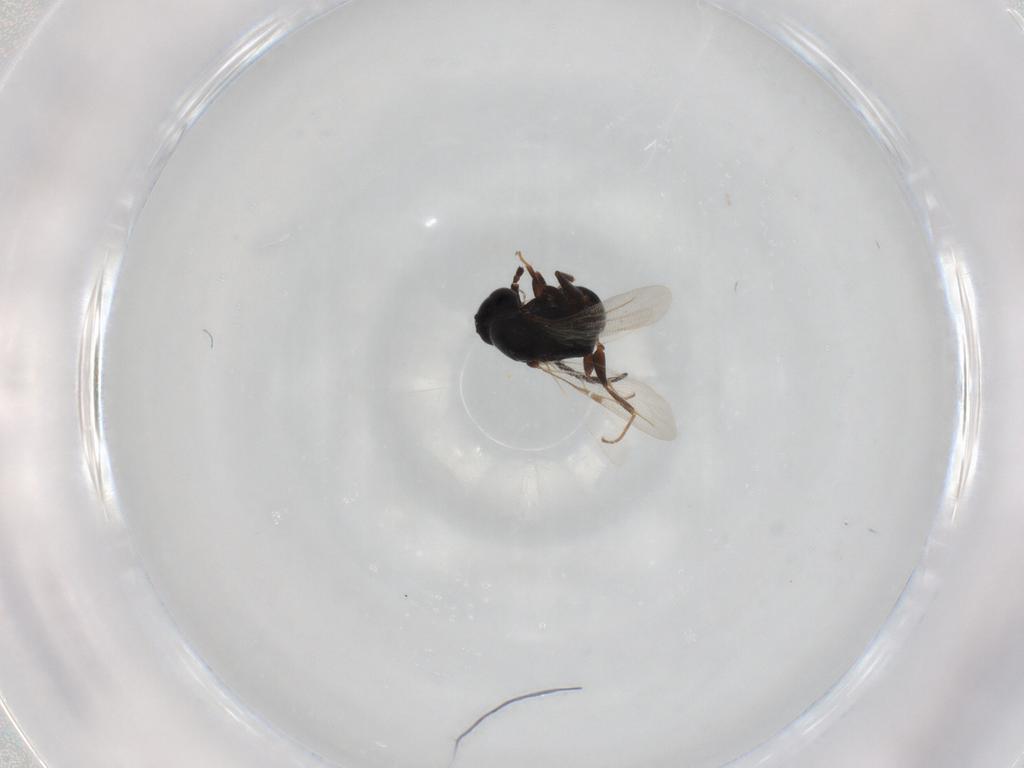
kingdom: Animalia
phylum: Arthropoda
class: Insecta
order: Hymenoptera
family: Bethylidae
